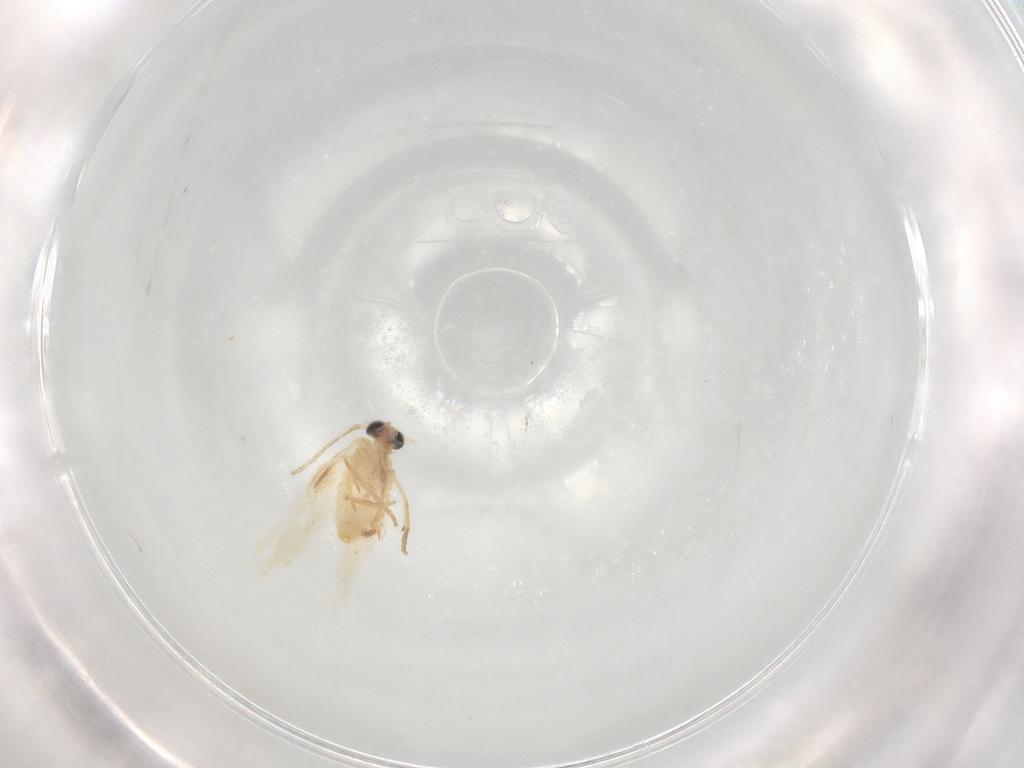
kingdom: Animalia
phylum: Arthropoda
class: Insecta
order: Lepidoptera
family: Nepticulidae
